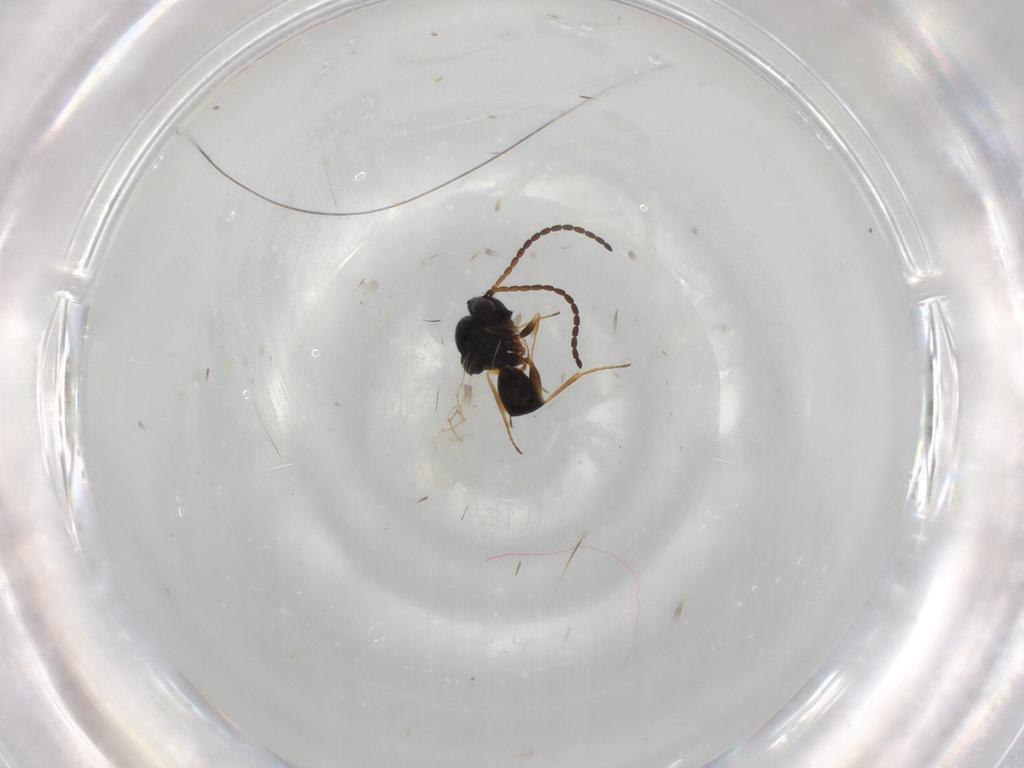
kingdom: Animalia
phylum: Arthropoda
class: Insecta
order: Hymenoptera
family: Figitidae
